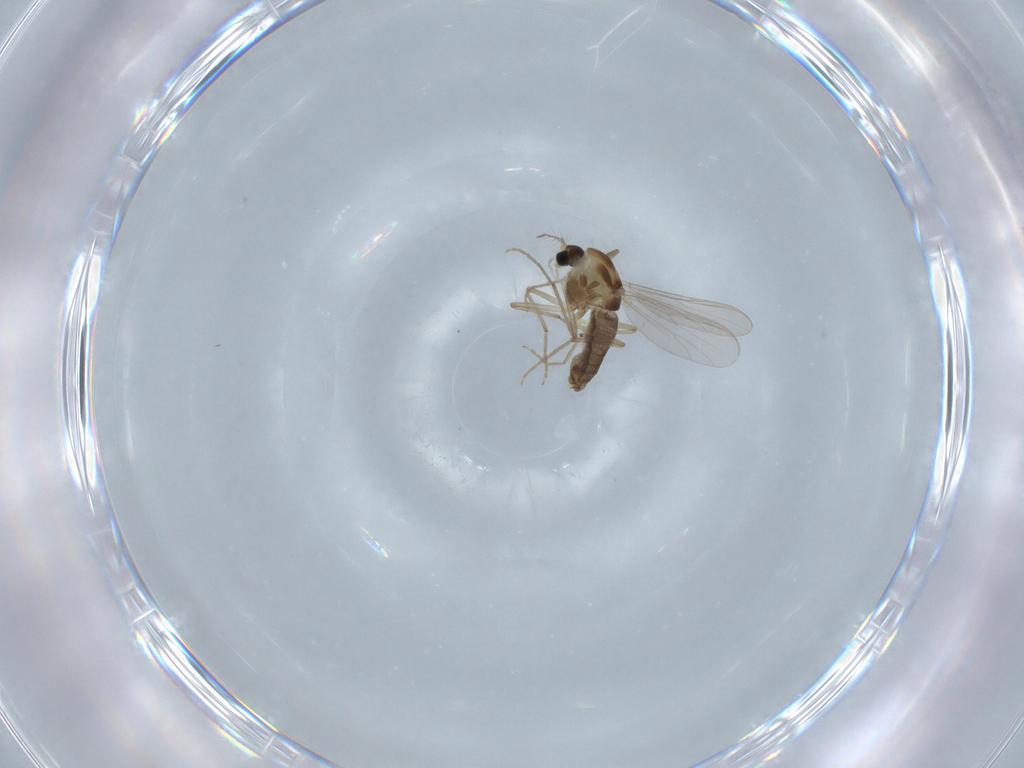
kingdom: Animalia
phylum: Arthropoda
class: Insecta
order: Diptera
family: Chironomidae
